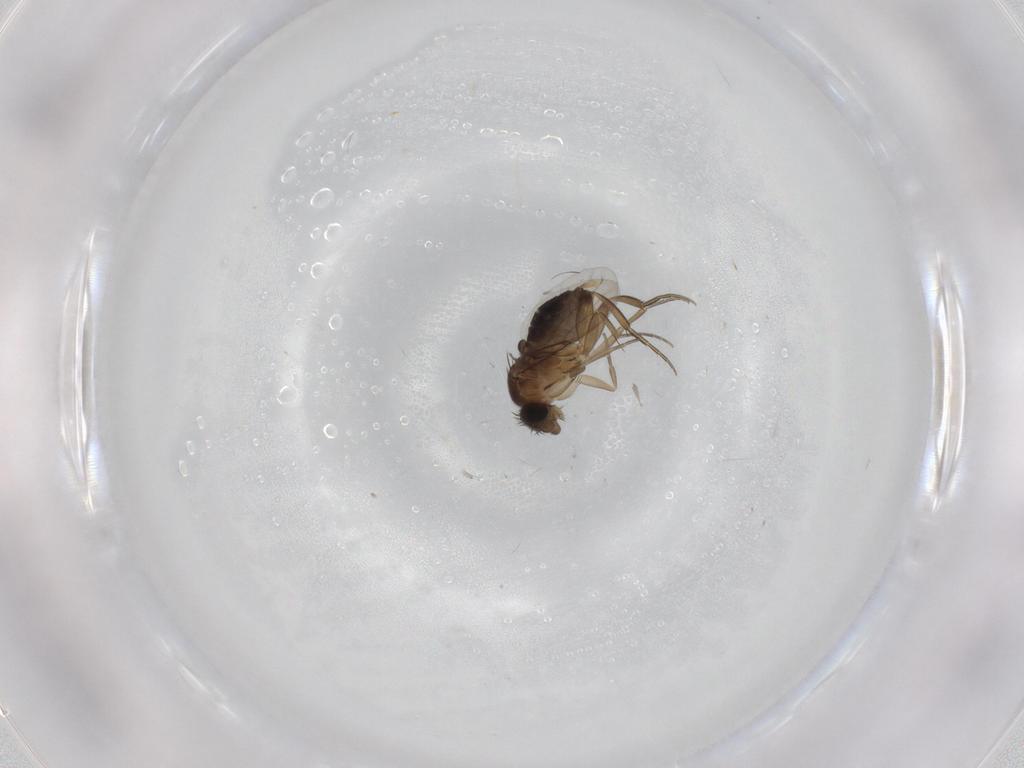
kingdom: Animalia
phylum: Arthropoda
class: Insecta
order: Diptera
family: Phoridae
